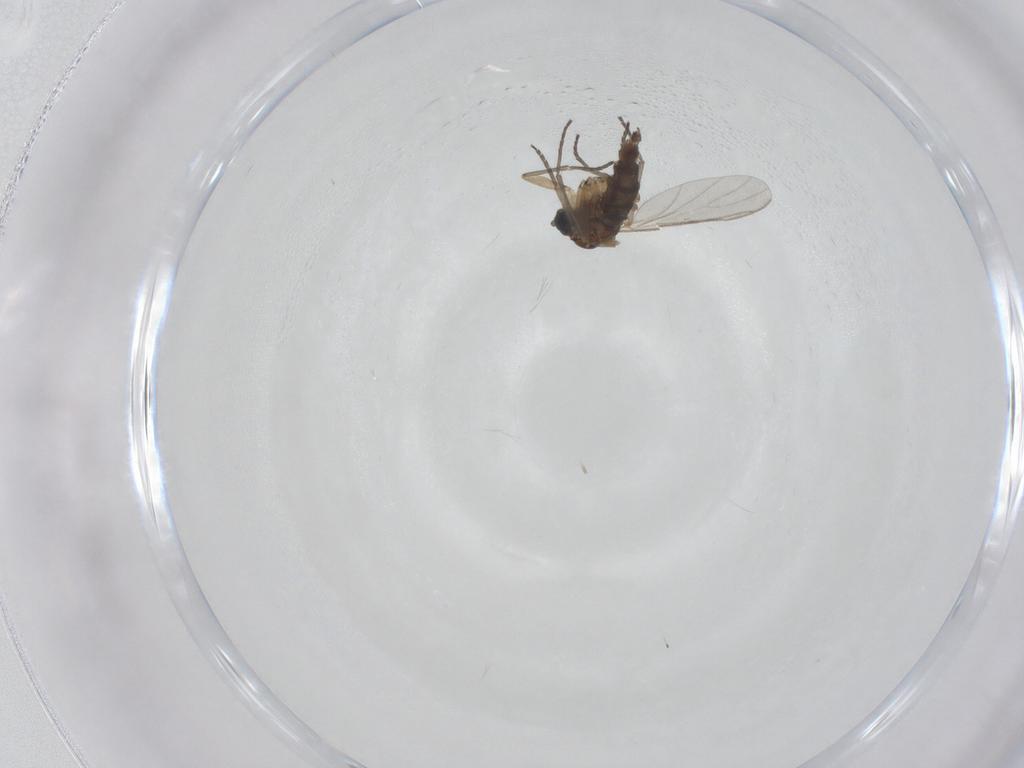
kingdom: Animalia
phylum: Arthropoda
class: Insecta
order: Diptera
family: Sciaridae
